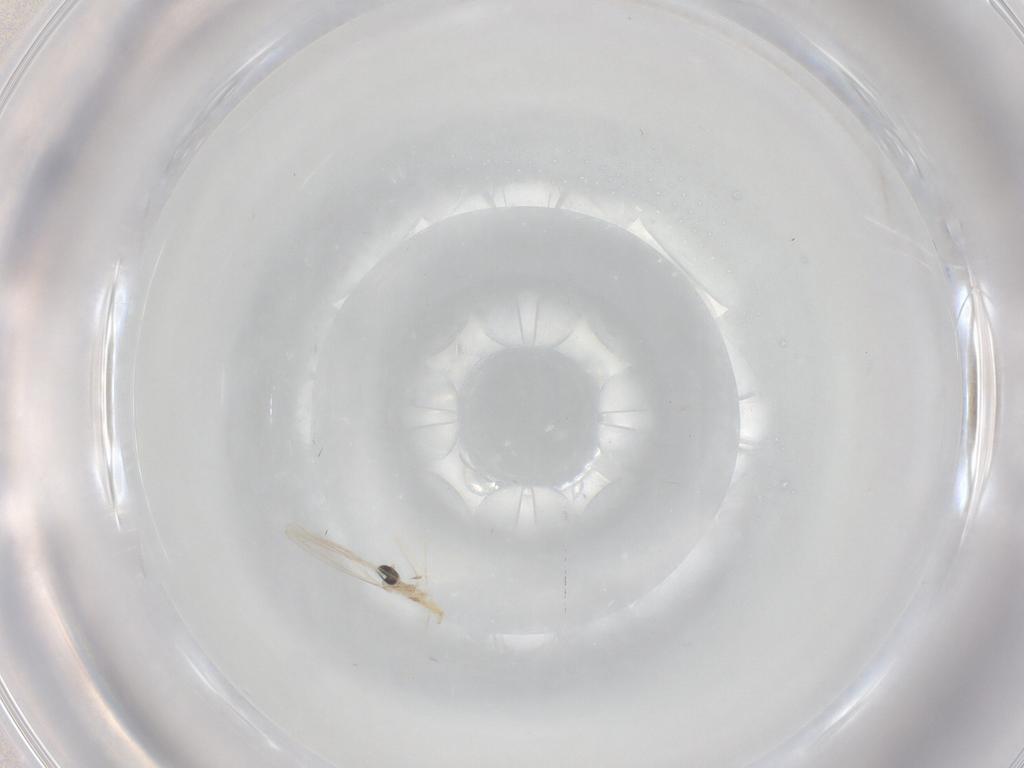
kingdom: Animalia
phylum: Arthropoda
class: Insecta
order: Diptera
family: Cecidomyiidae
